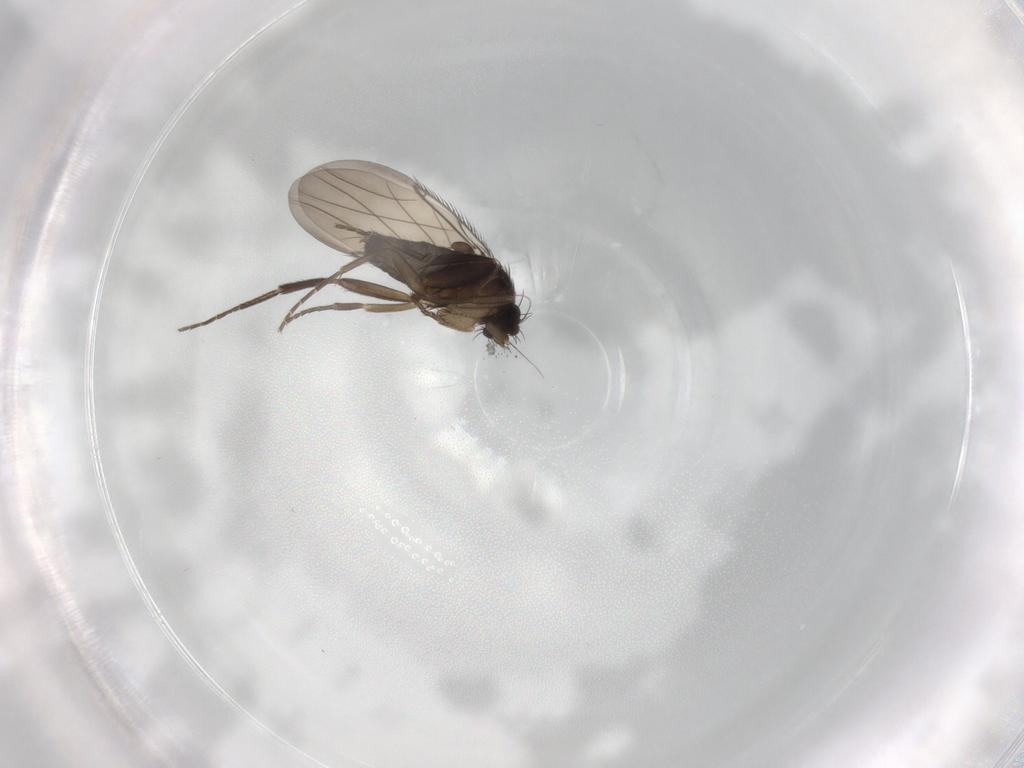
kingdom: Animalia
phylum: Arthropoda
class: Insecta
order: Diptera
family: Phoridae
